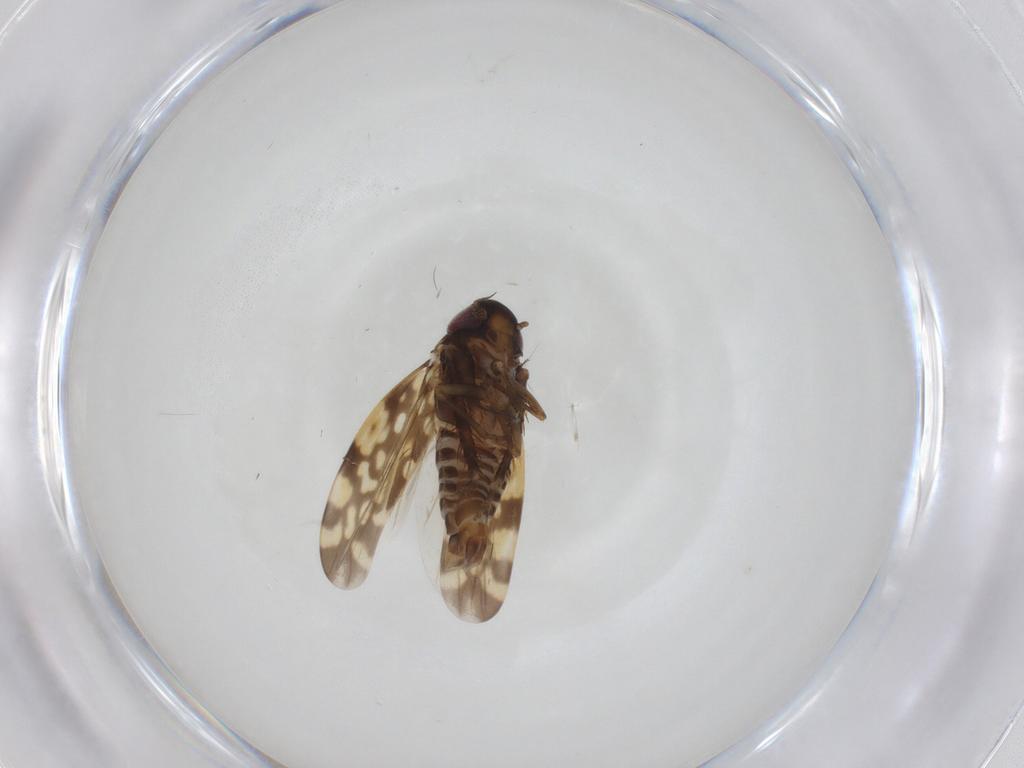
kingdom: Animalia
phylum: Arthropoda
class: Insecta
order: Hemiptera
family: Cicadellidae
